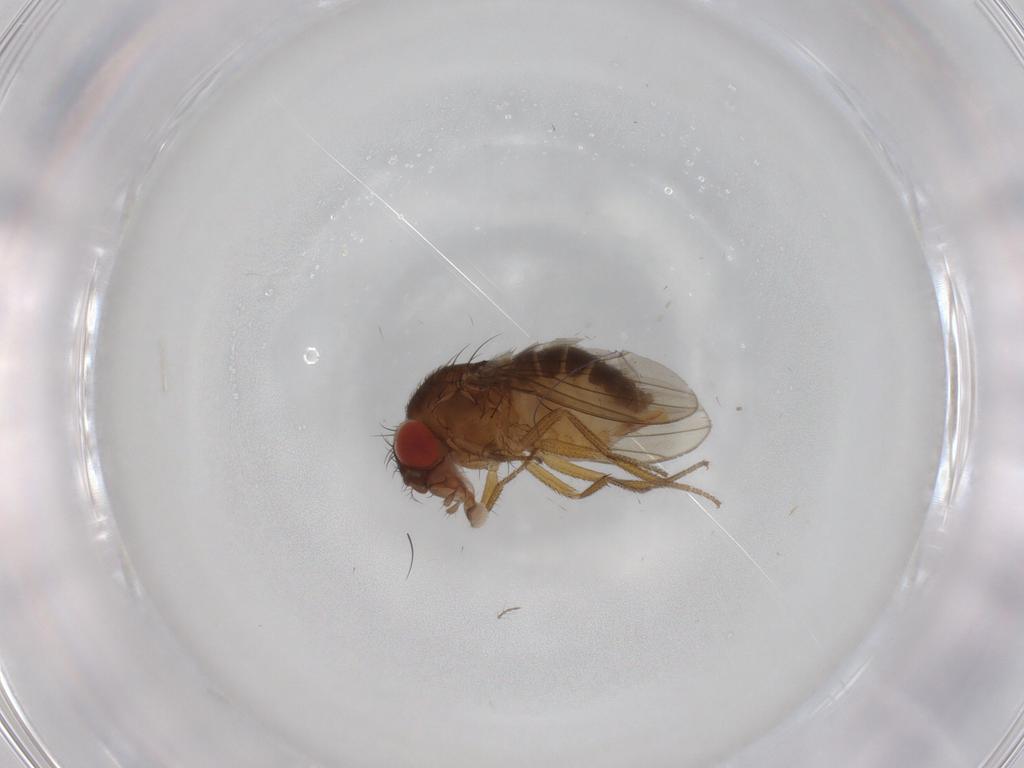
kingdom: Animalia
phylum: Arthropoda
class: Insecta
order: Diptera
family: Drosophilidae
